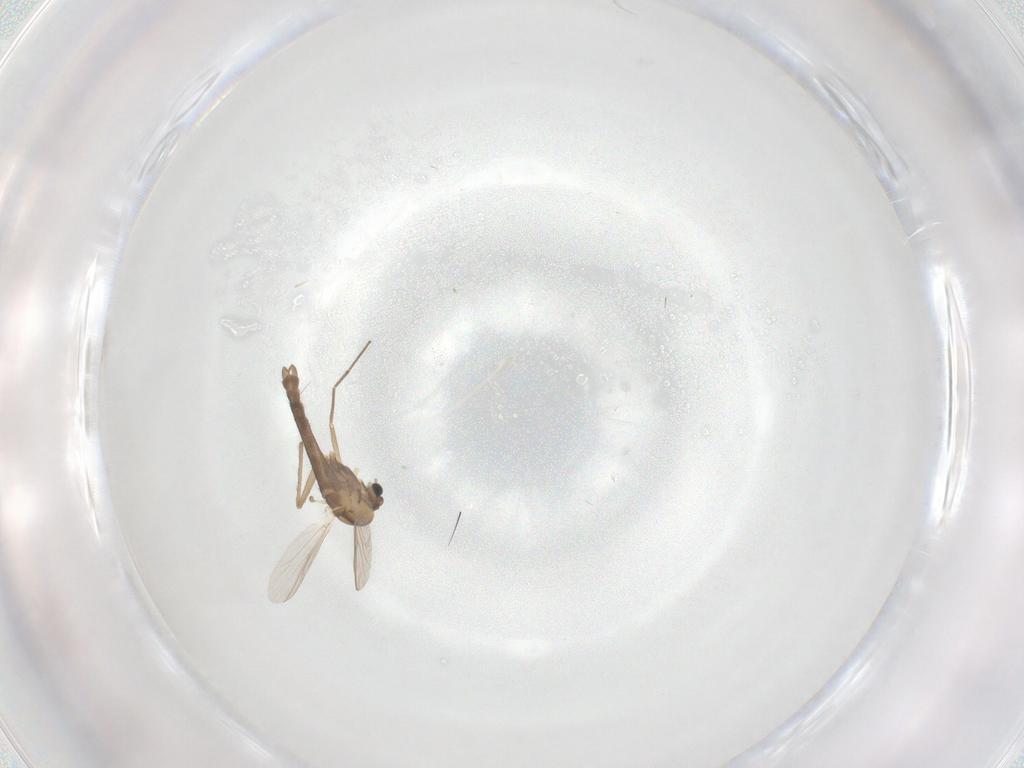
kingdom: Animalia
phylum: Arthropoda
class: Insecta
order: Diptera
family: Chironomidae
